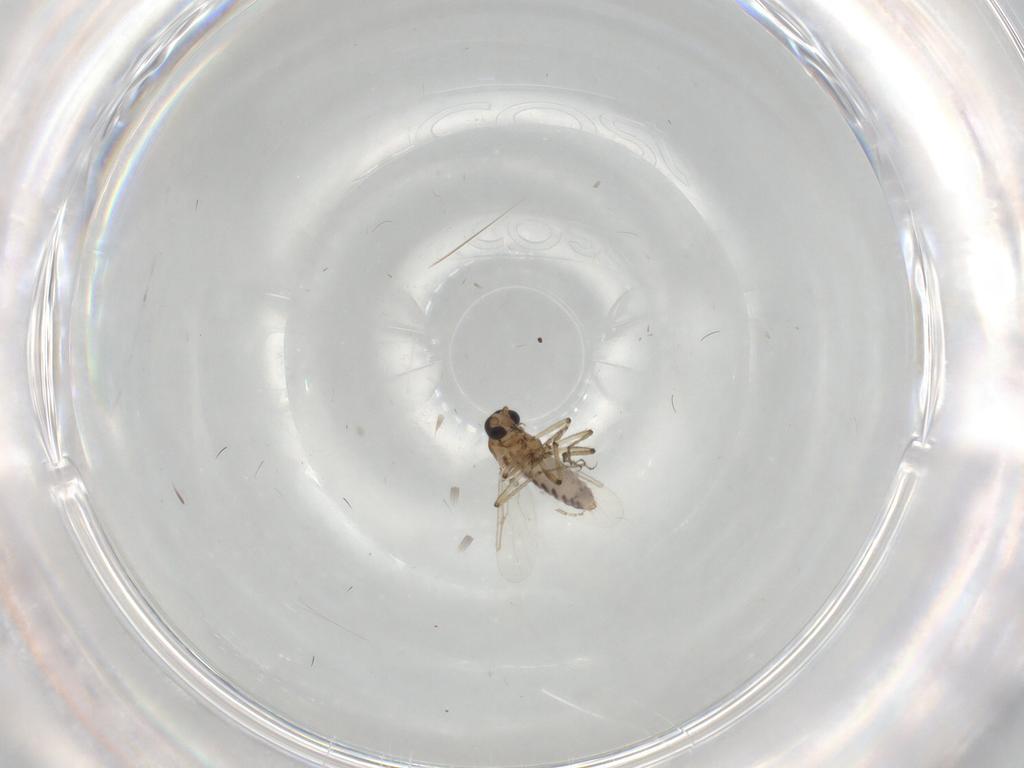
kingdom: Animalia
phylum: Arthropoda
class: Insecta
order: Diptera
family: Ceratopogonidae
